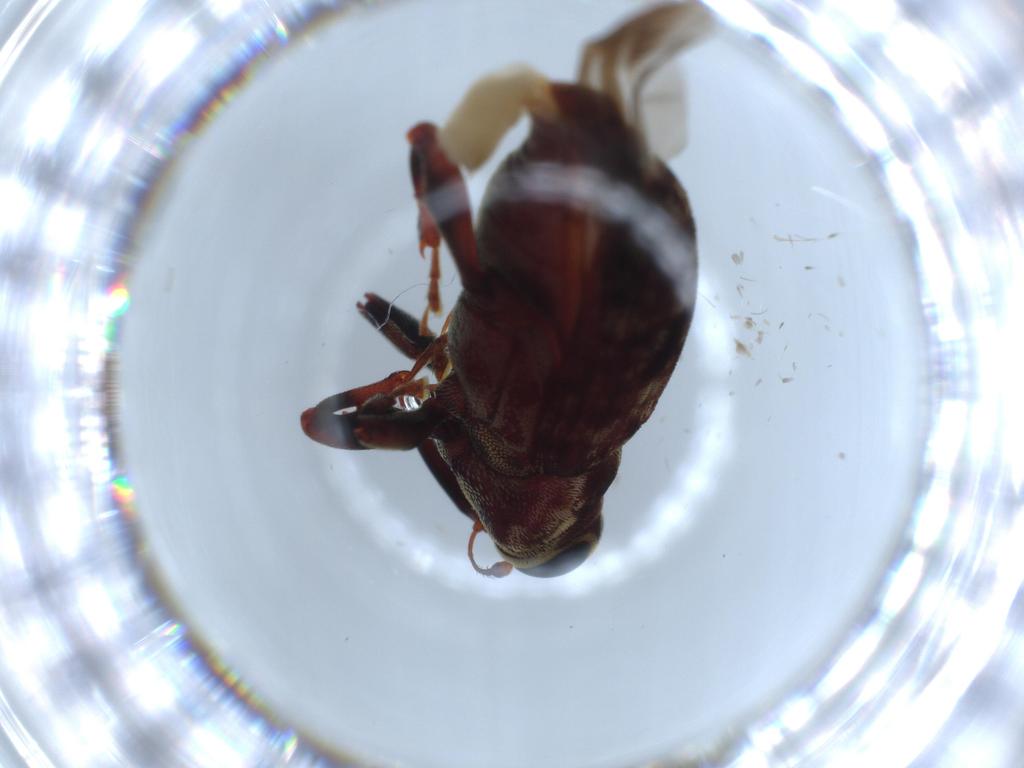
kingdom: Animalia
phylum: Arthropoda
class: Insecta
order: Coleoptera
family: Curculionidae
